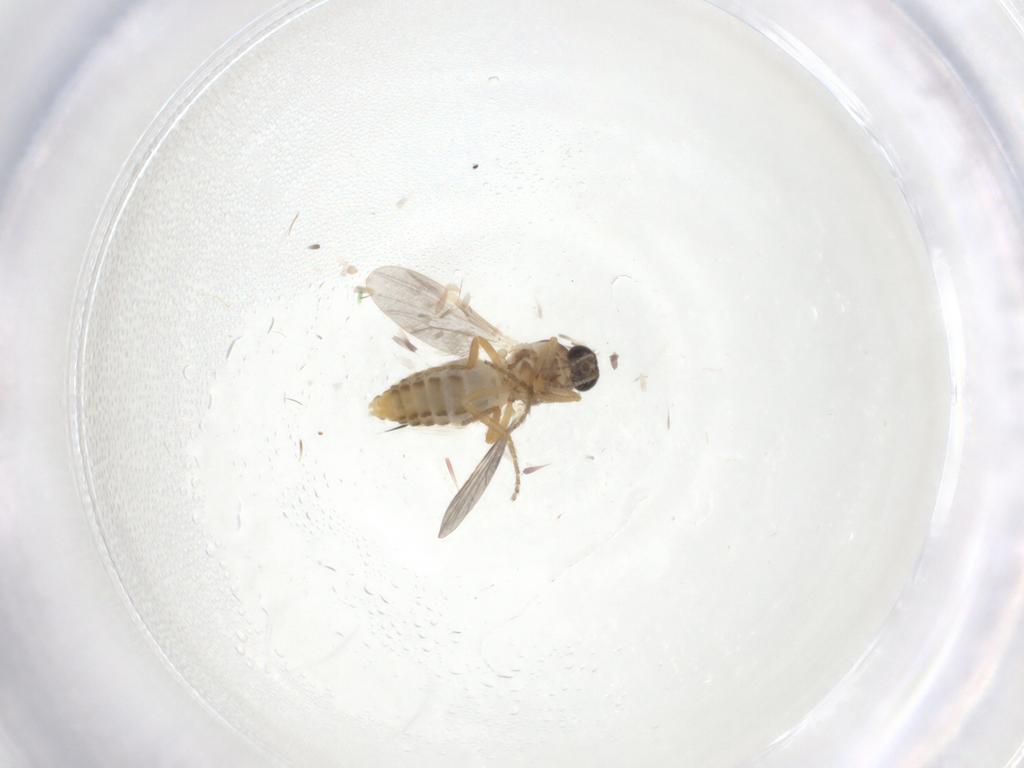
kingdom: Animalia
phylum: Arthropoda
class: Insecta
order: Diptera
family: Ceratopogonidae
